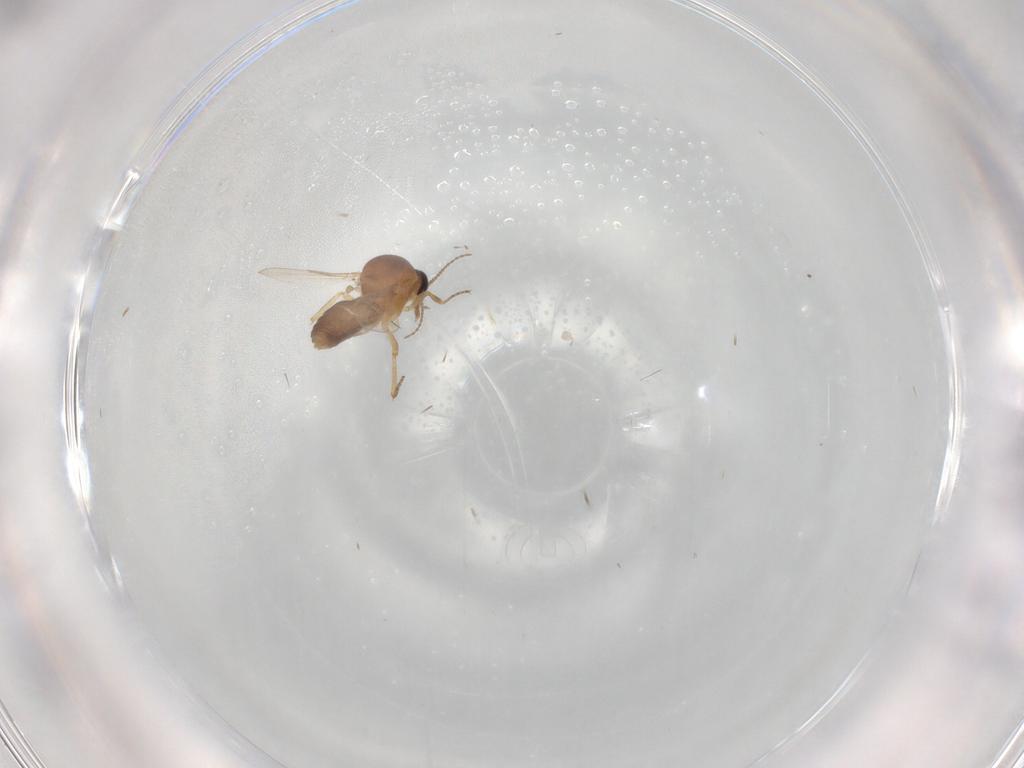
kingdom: Animalia
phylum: Arthropoda
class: Insecta
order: Diptera
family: Ceratopogonidae
